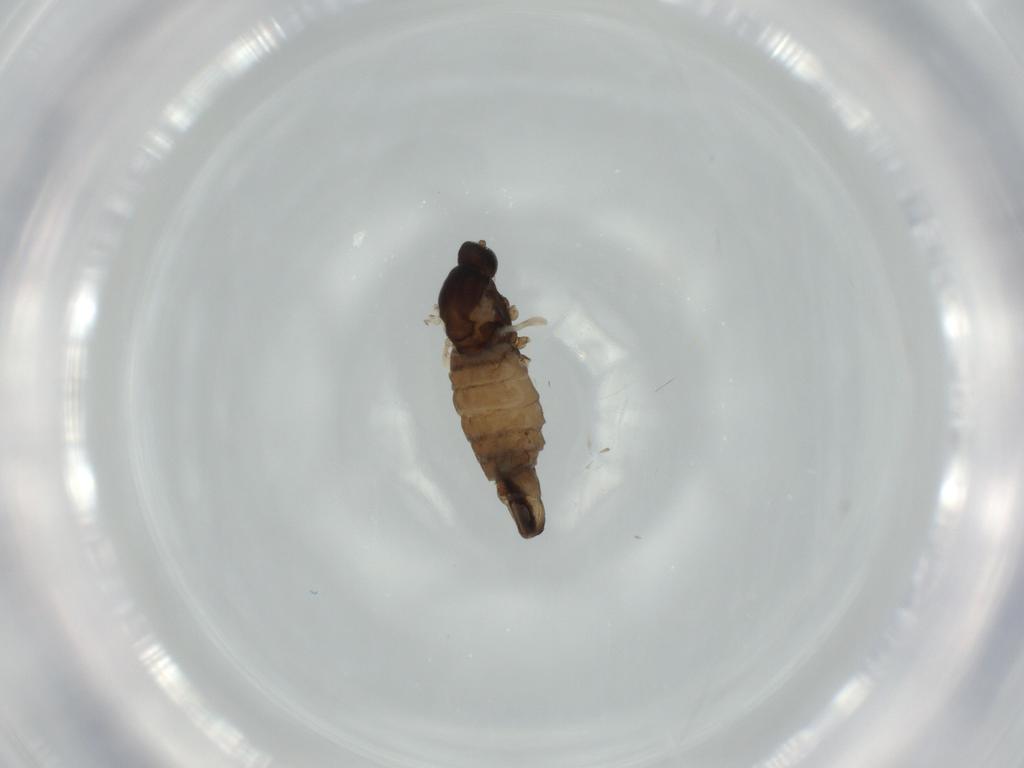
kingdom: Animalia
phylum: Arthropoda
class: Insecta
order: Diptera
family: Cecidomyiidae
